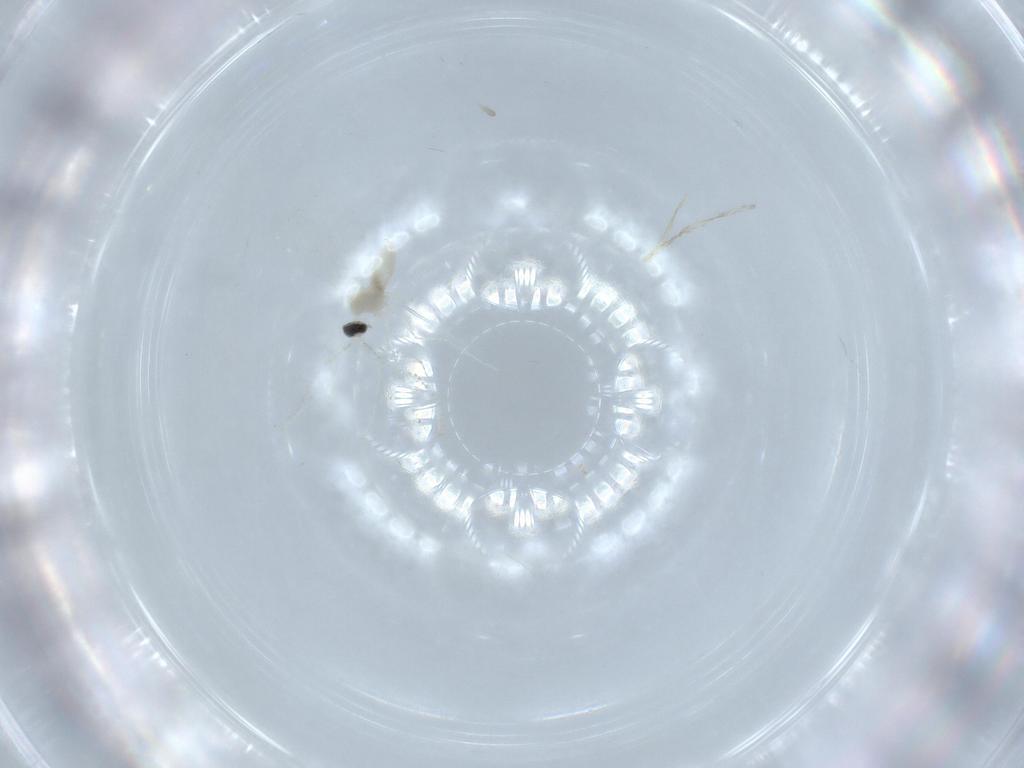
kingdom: Animalia
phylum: Arthropoda
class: Insecta
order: Diptera
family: Cecidomyiidae
